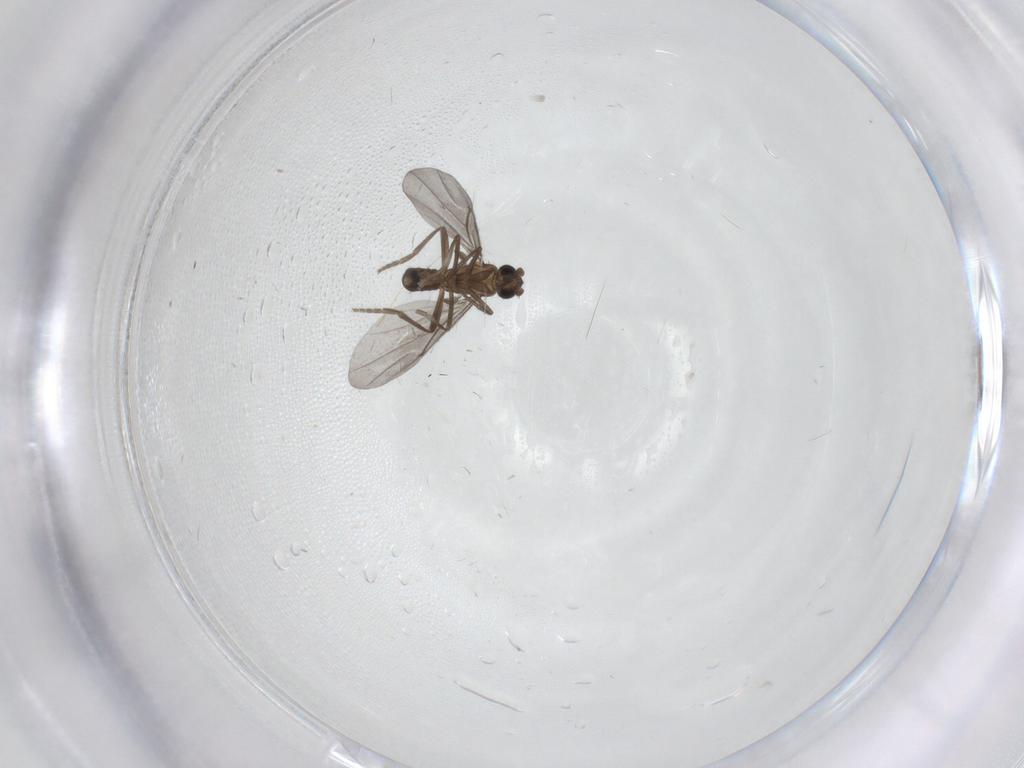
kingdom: Animalia
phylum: Arthropoda
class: Insecta
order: Diptera
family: Phoridae
